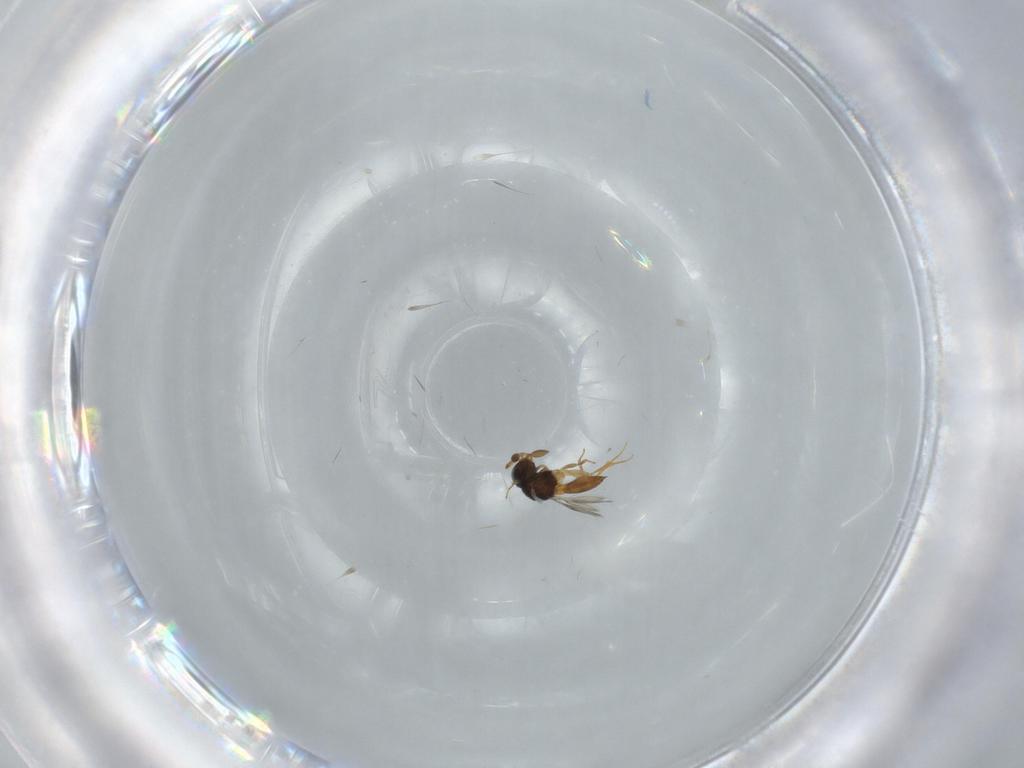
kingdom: Animalia
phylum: Arthropoda
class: Insecta
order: Hymenoptera
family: Scelionidae
